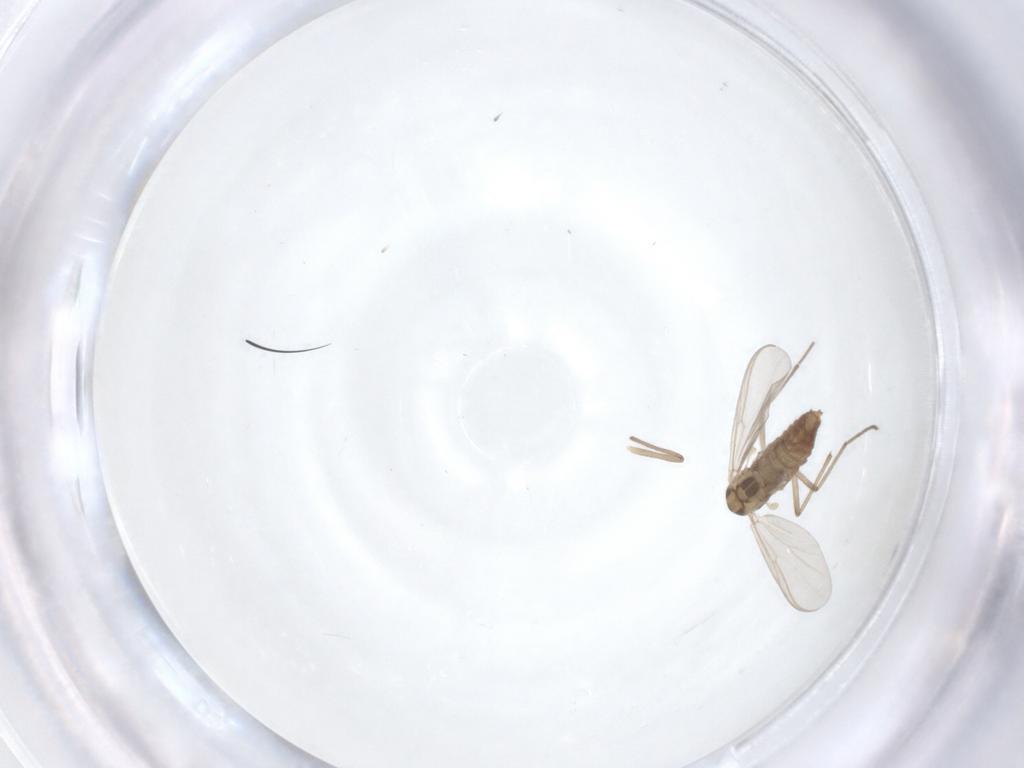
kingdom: Animalia
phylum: Arthropoda
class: Insecta
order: Diptera
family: Chironomidae
